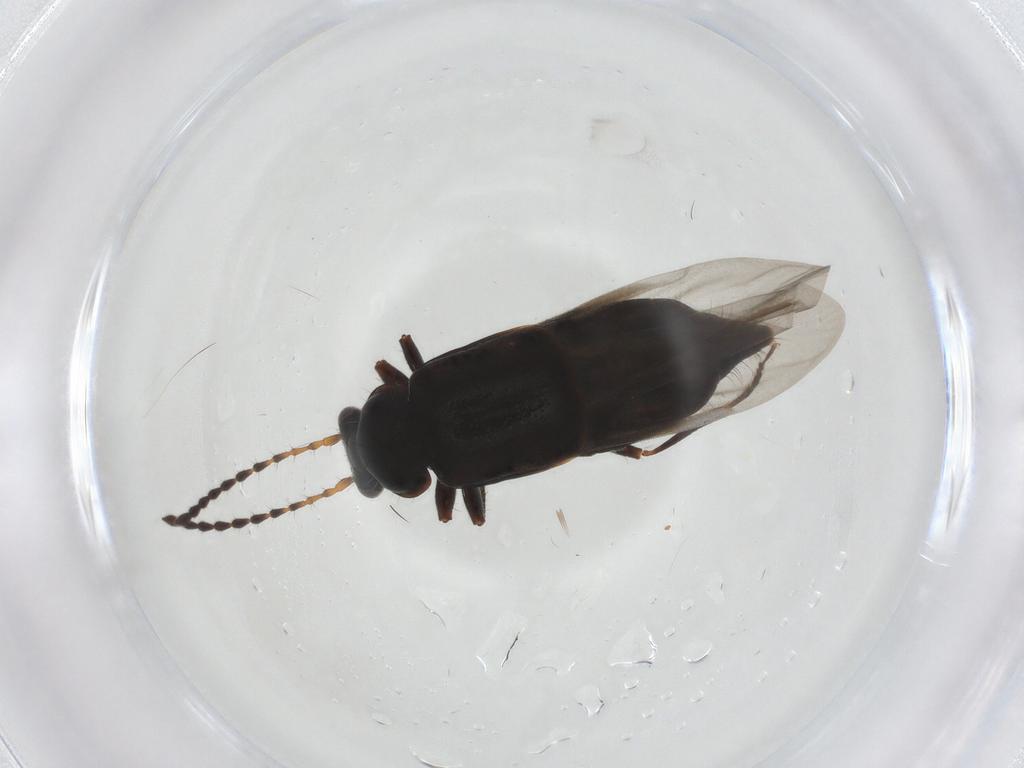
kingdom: Animalia
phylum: Arthropoda
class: Insecta
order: Coleoptera
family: Staphylinidae
